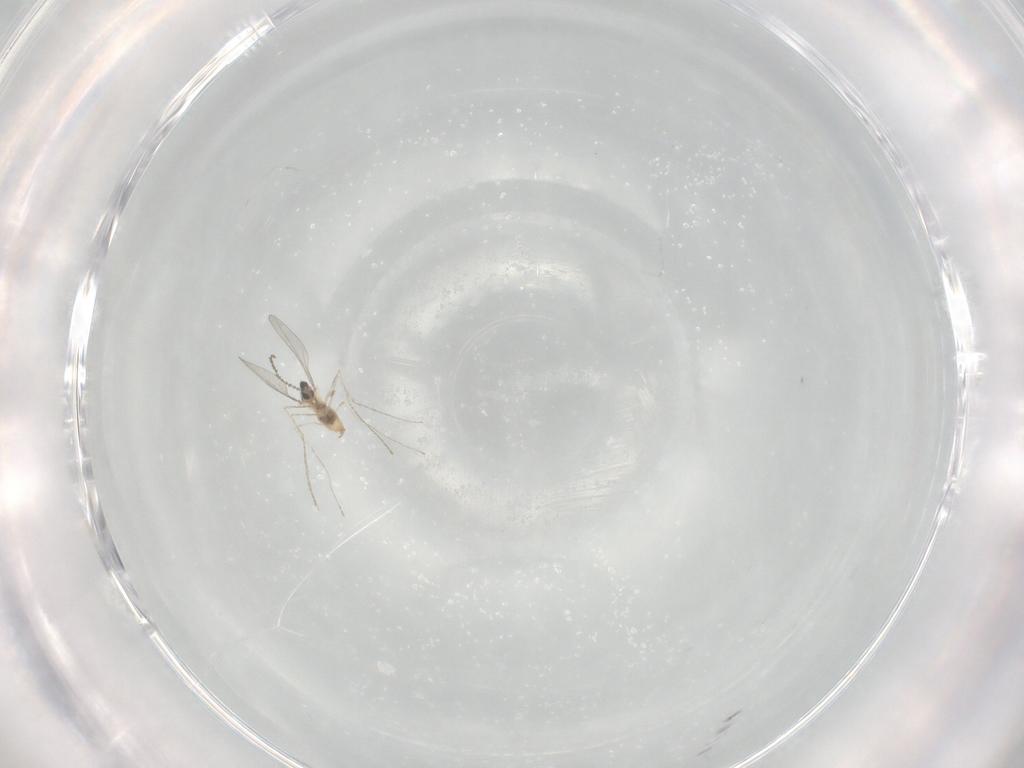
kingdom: Animalia
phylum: Arthropoda
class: Insecta
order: Diptera
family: Cecidomyiidae
